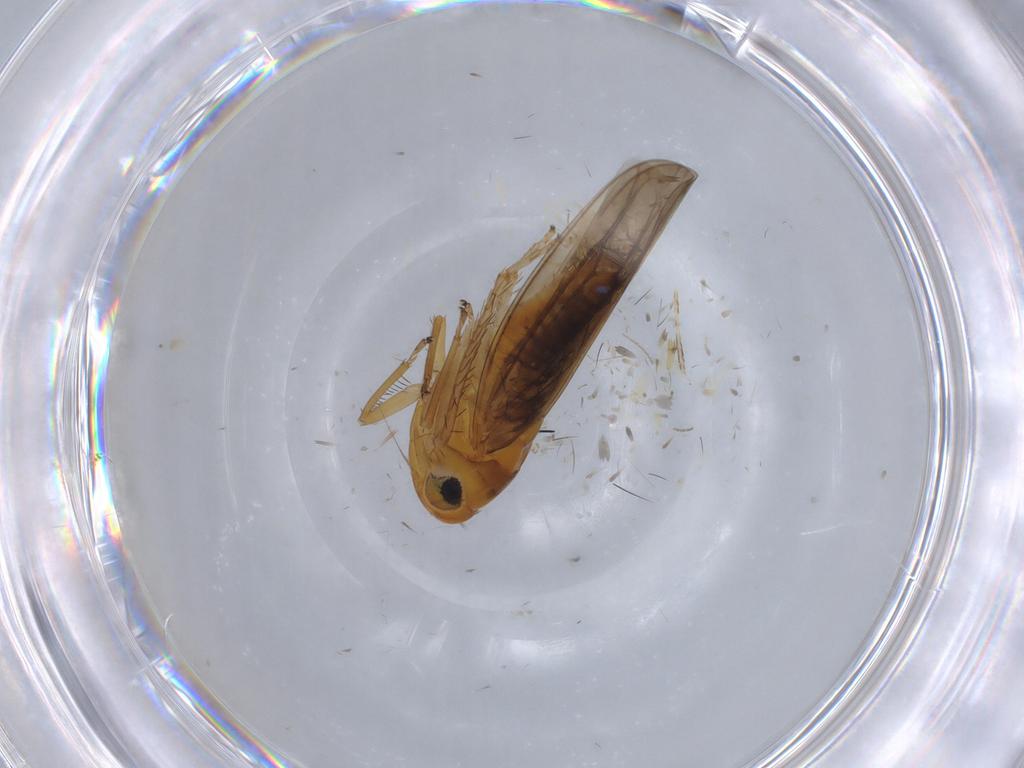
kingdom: Animalia
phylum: Arthropoda
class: Insecta
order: Hemiptera
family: Cicadellidae
